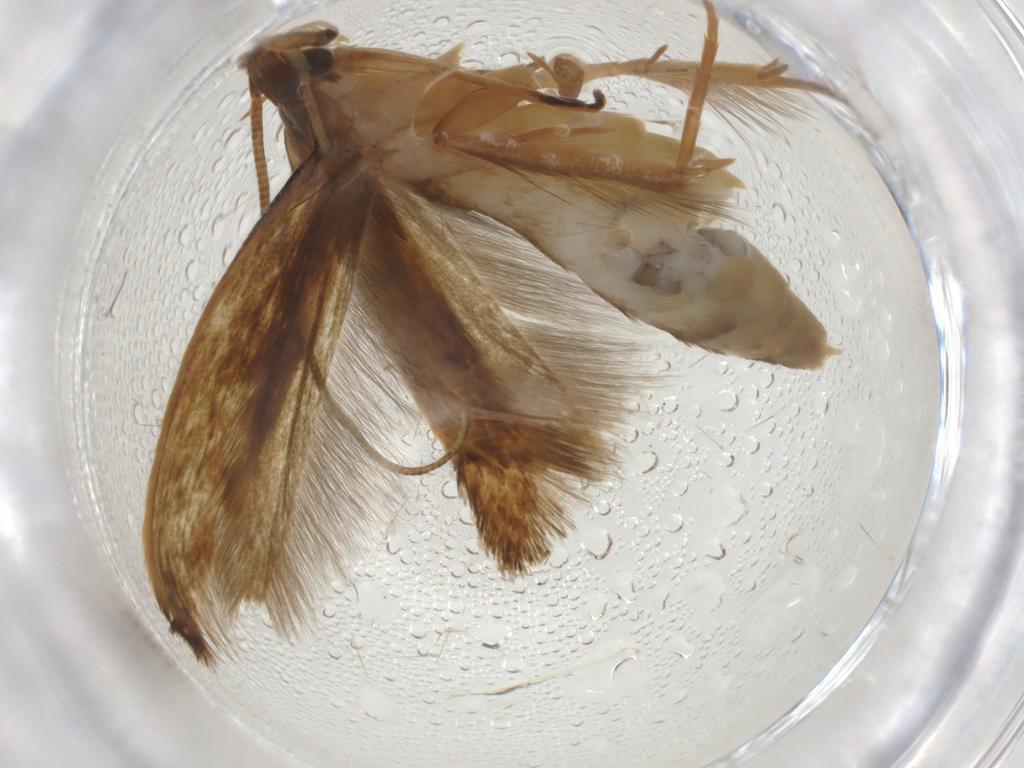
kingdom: Animalia
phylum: Arthropoda
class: Insecta
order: Lepidoptera
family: Tineidae
